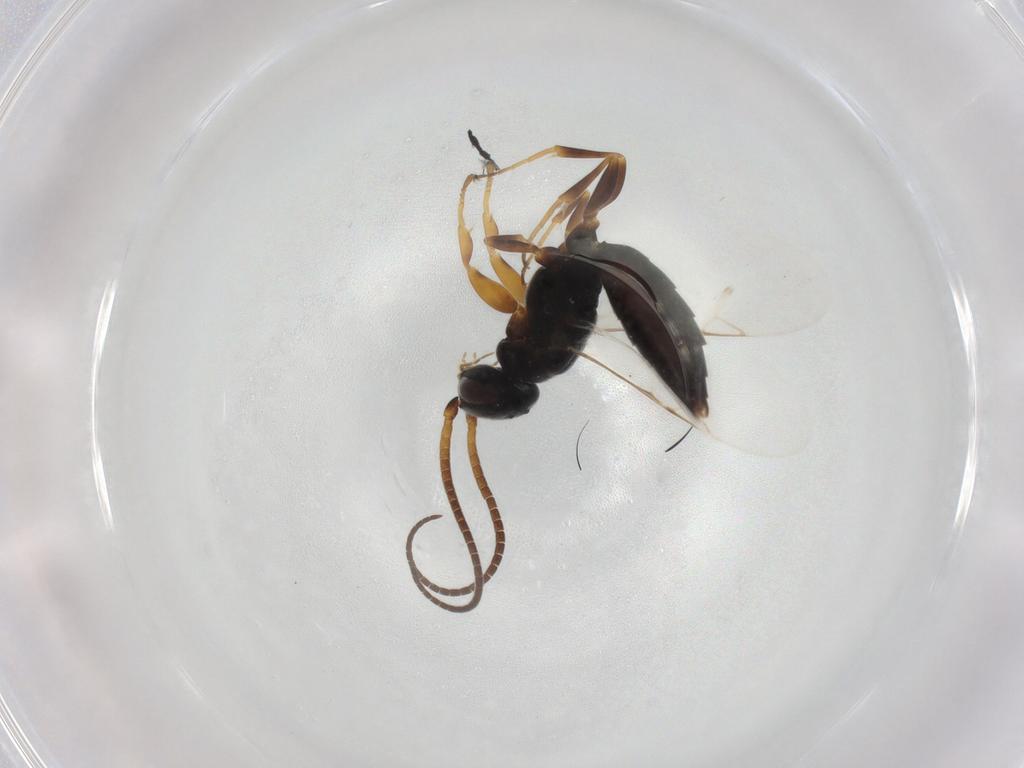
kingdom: Animalia
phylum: Arthropoda
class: Insecta
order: Hymenoptera
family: Sclerogibbidae
